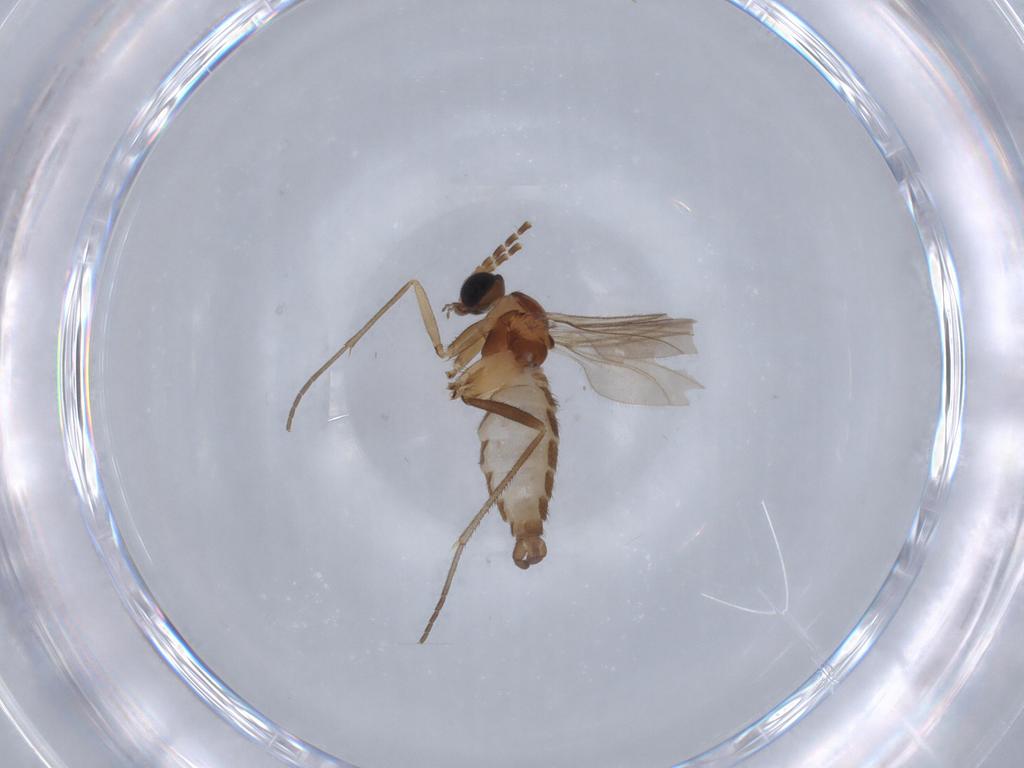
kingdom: Animalia
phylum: Arthropoda
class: Insecta
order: Diptera
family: Sciaridae
